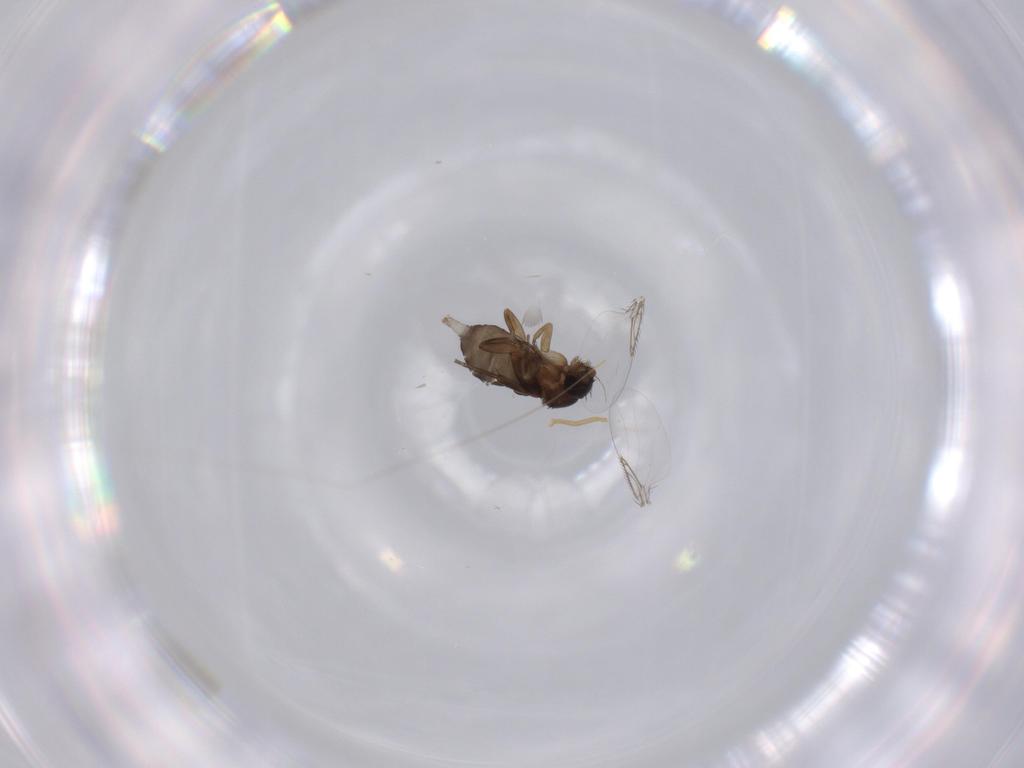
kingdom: Animalia
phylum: Arthropoda
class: Insecta
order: Diptera
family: Phoridae
